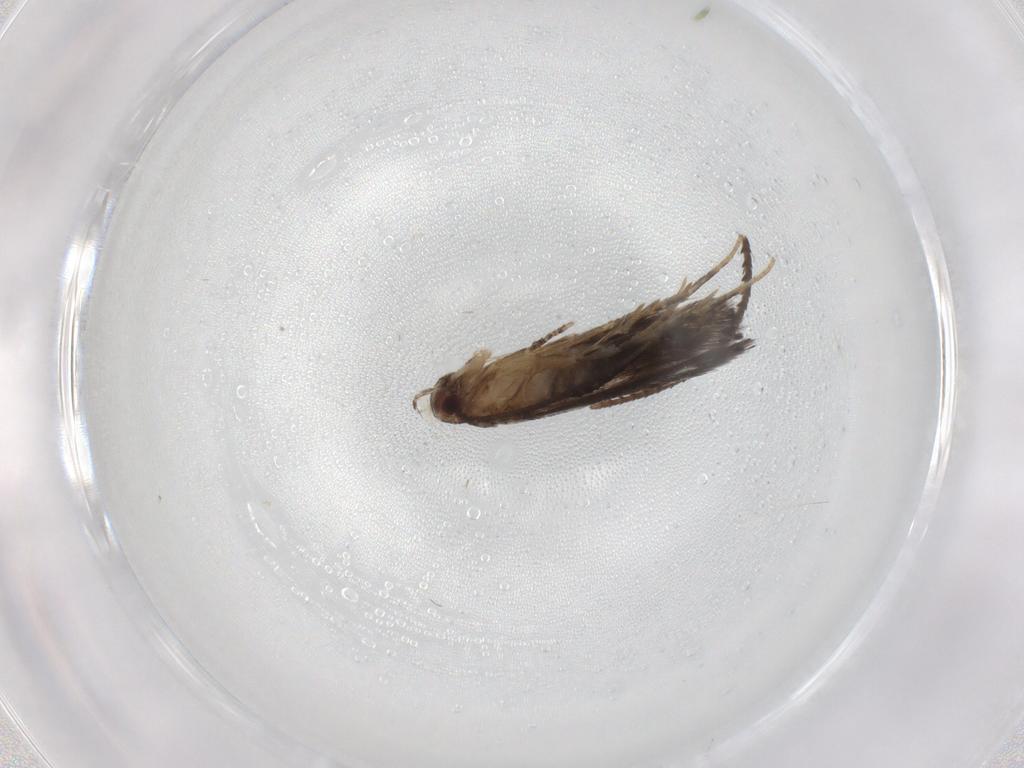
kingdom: Animalia
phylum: Arthropoda
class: Insecta
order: Lepidoptera
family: Elachistidae
